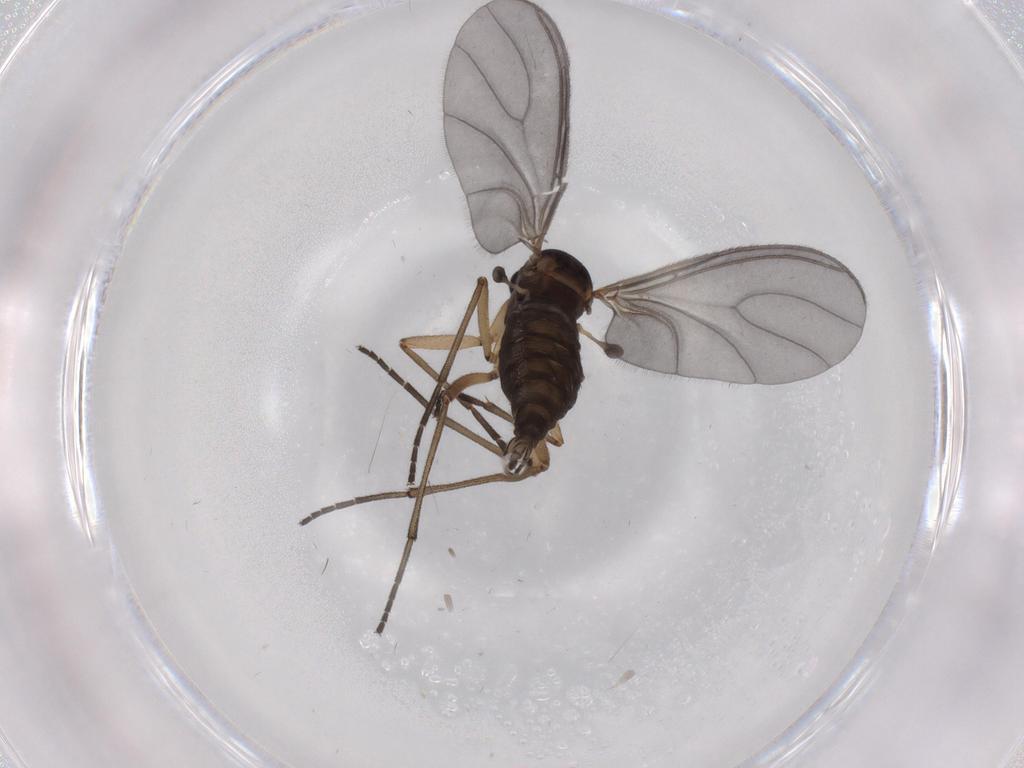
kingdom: Animalia
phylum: Arthropoda
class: Insecta
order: Diptera
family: Sciaridae
